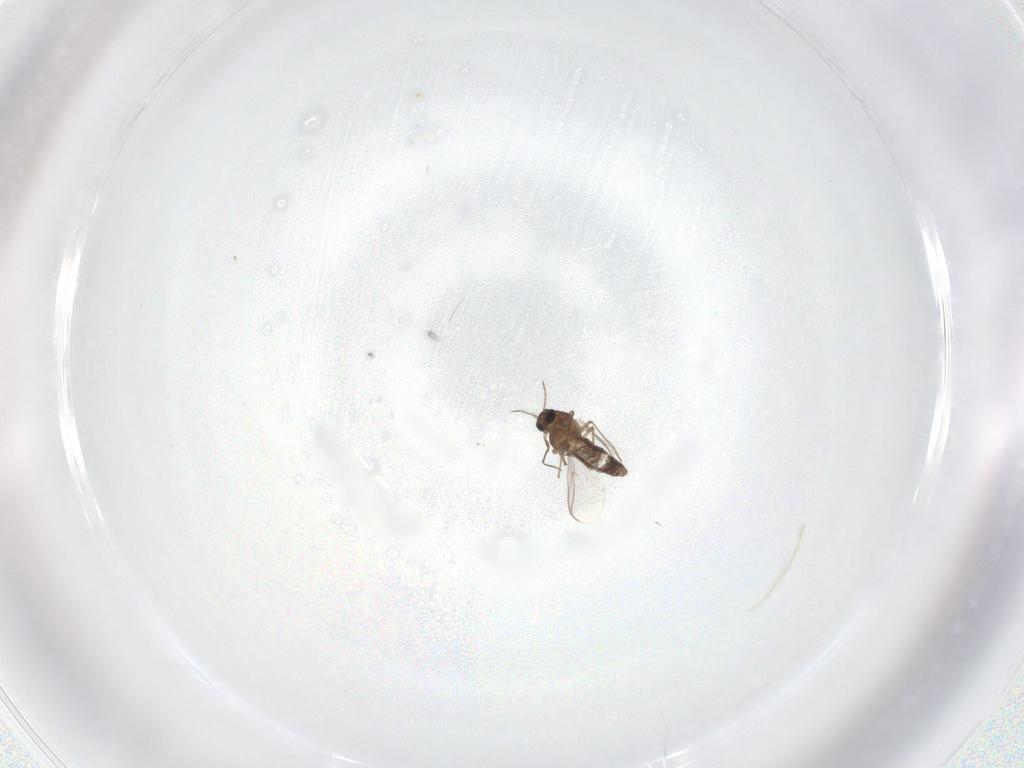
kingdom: Animalia
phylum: Arthropoda
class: Insecta
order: Diptera
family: Chironomidae
